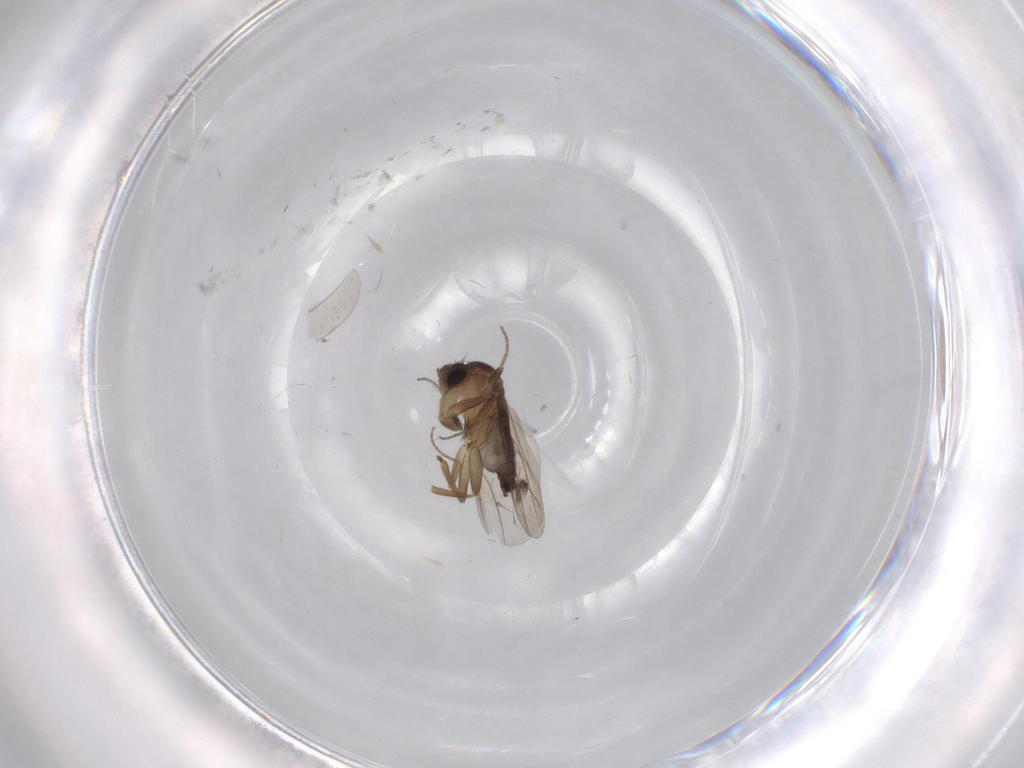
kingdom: Animalia
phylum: Arthropoda
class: Insecta
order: Diptera
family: Phoridae
